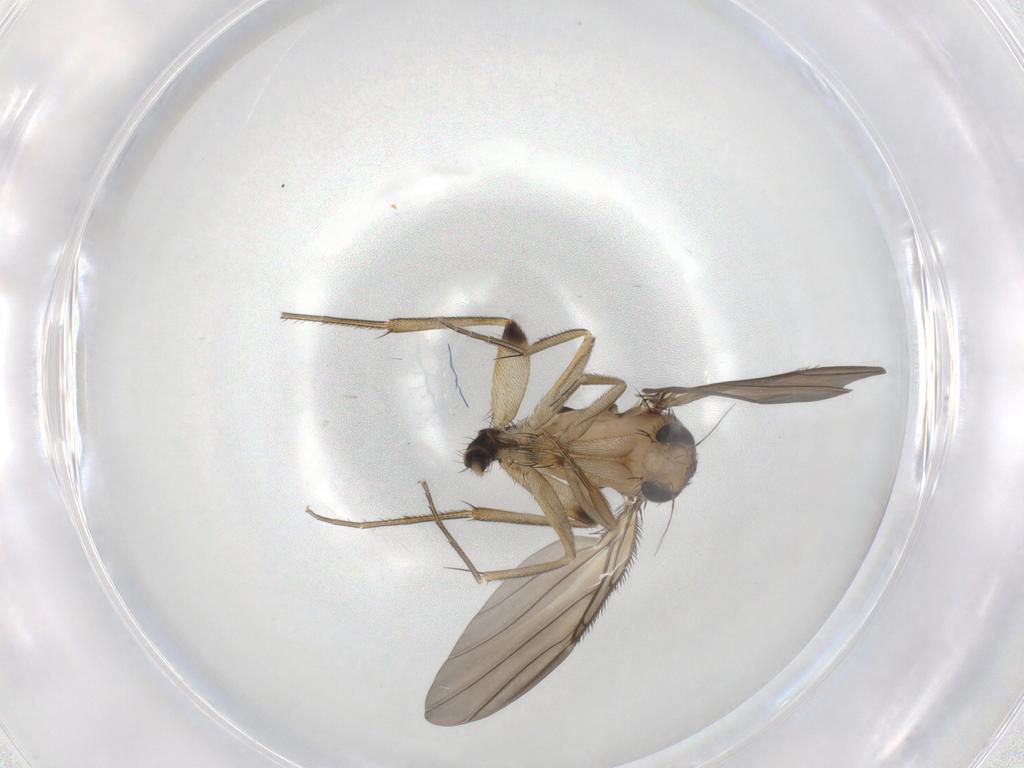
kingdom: Animalia
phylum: Arthropoda
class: Insecta
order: Diptera
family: Phoridae
